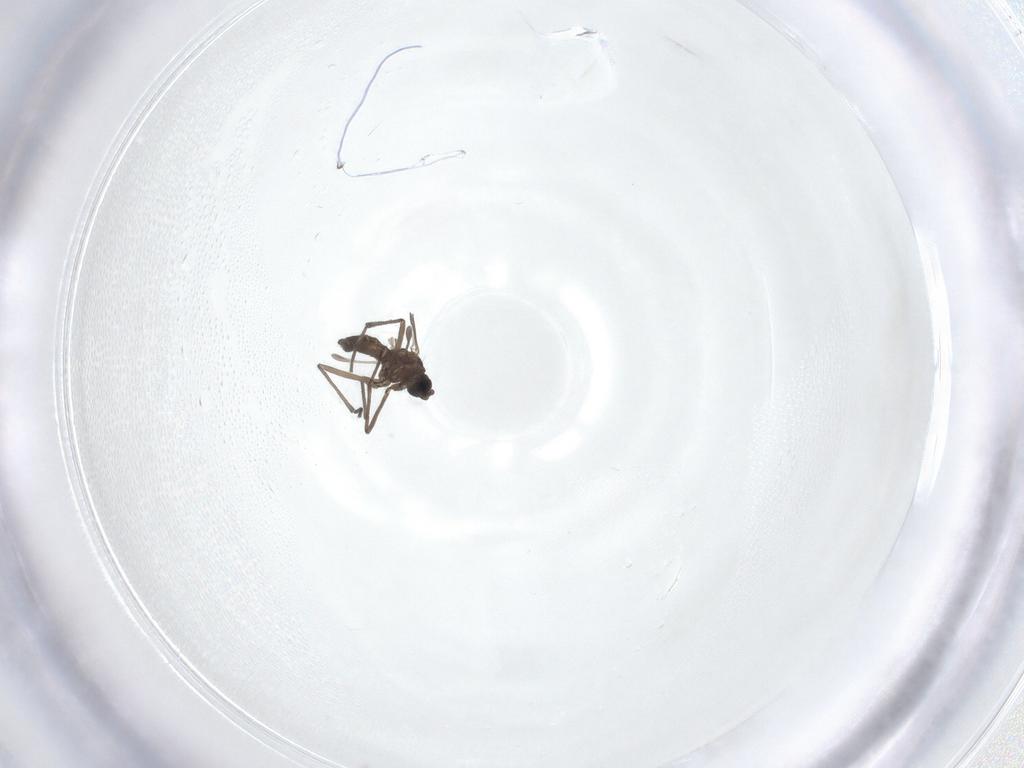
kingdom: Animalia
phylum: Arthropoda
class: Insecta
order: Diptera
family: Sciaridae
